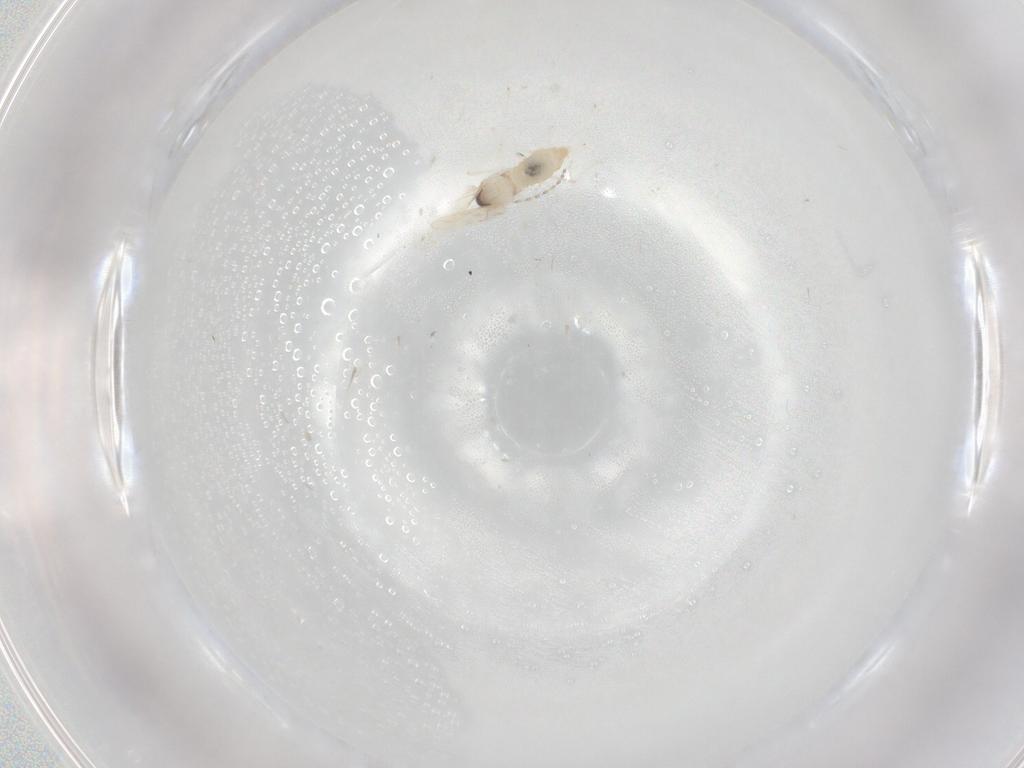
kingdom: Animalia
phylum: Arthropoda
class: Insecta
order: Diptera
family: Cecidomyiidae
